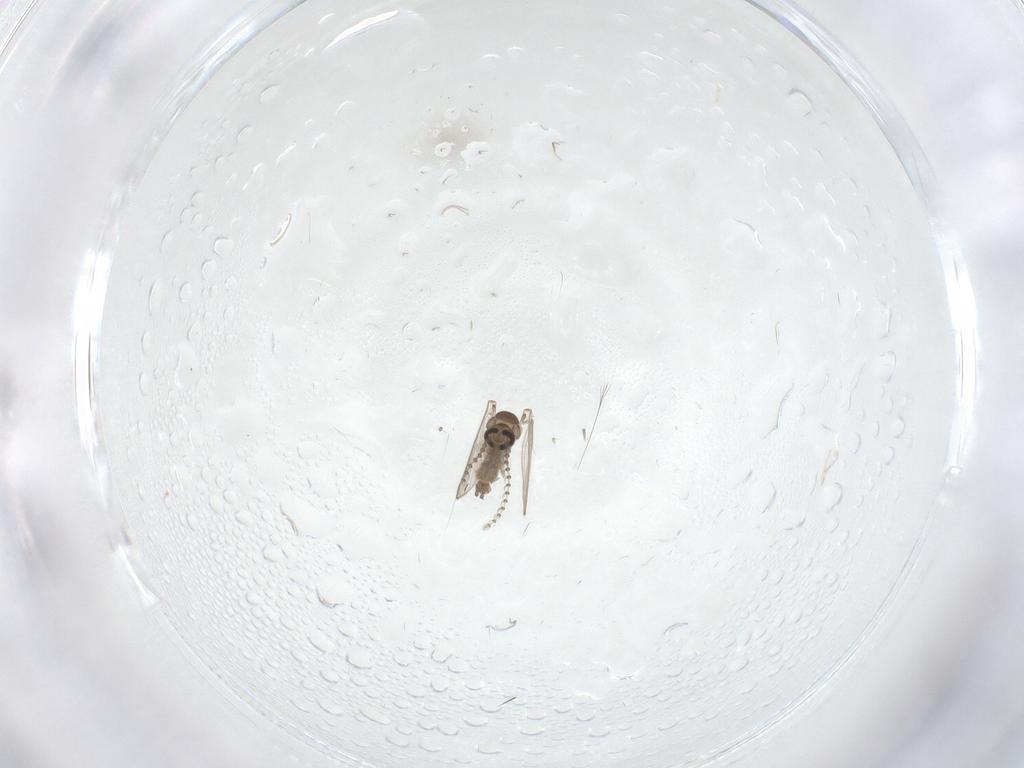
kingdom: Animalia
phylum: Arthropoda
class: Insecta
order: Diptera
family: Psychodidae
